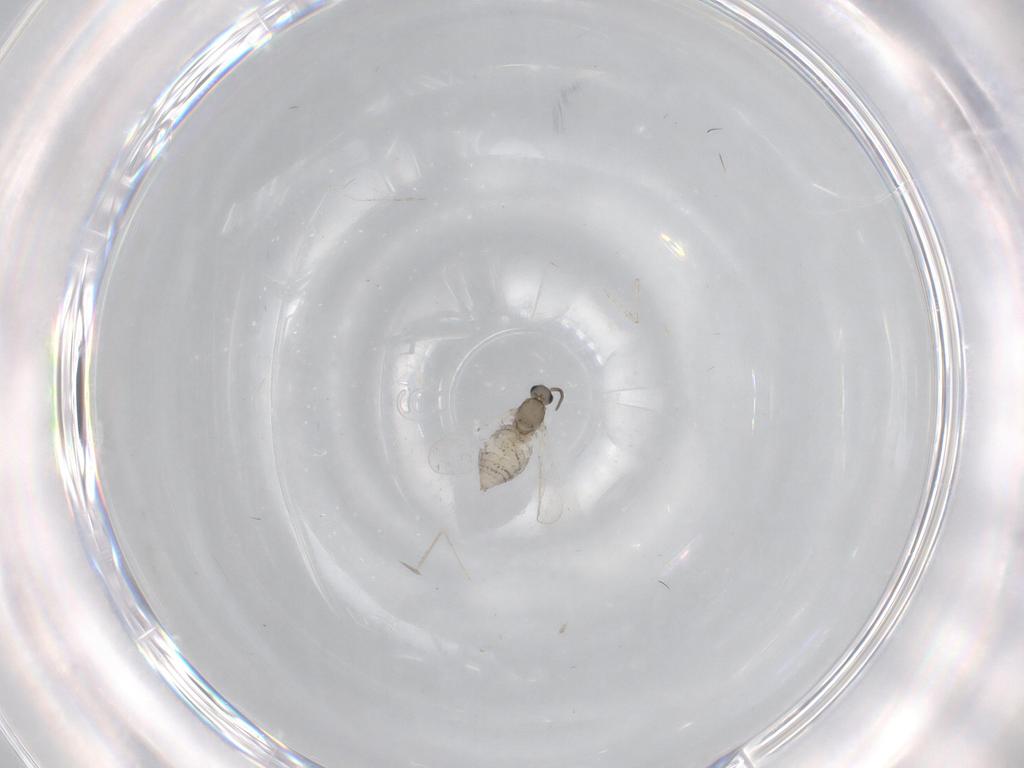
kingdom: Animalia
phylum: Arthropoda
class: Insecta
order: Diptera
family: Cecidomyiidae
